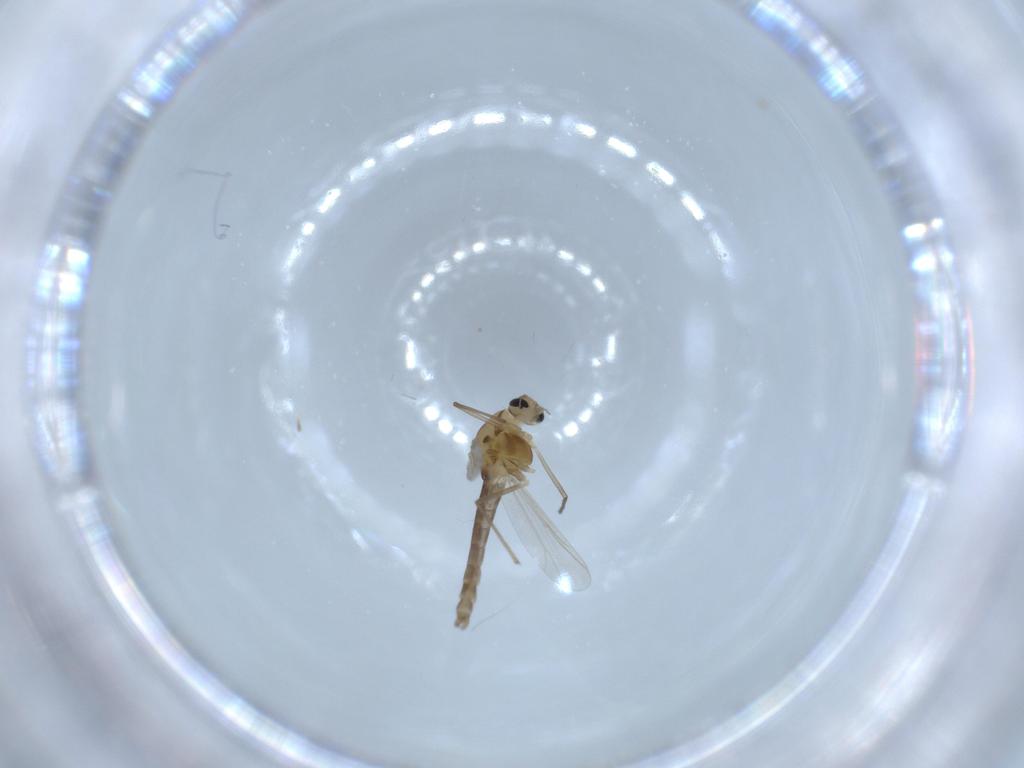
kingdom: Animalia
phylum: Arthropoda
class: Insecta
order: Diptera
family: Chironomidae
